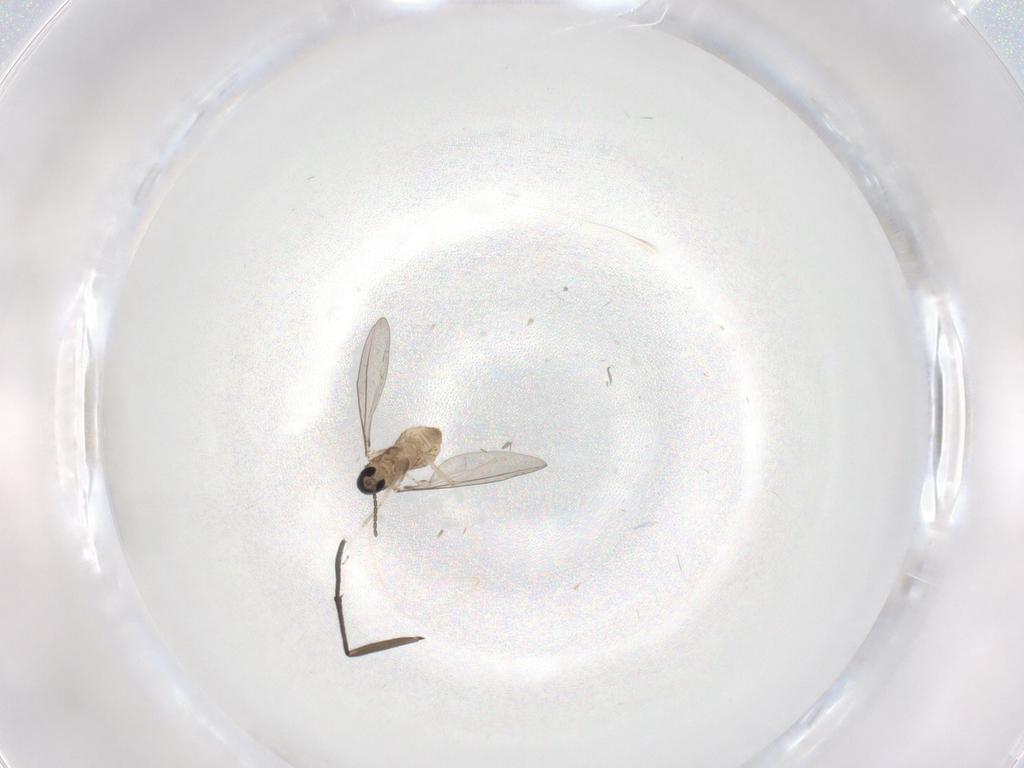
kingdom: Animalia
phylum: Arthropoda
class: Insecta
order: Diptera
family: Cecidomyiidae
